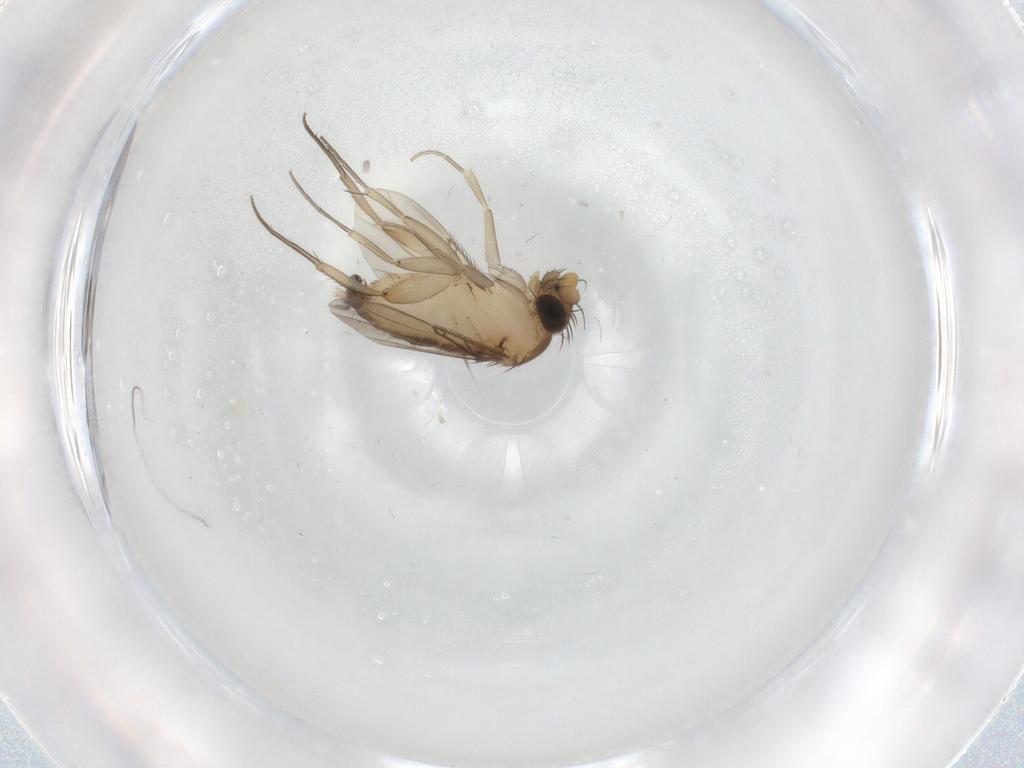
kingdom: Animalia
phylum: Arthropoda
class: Insecta
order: Diptera
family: Phoridae
